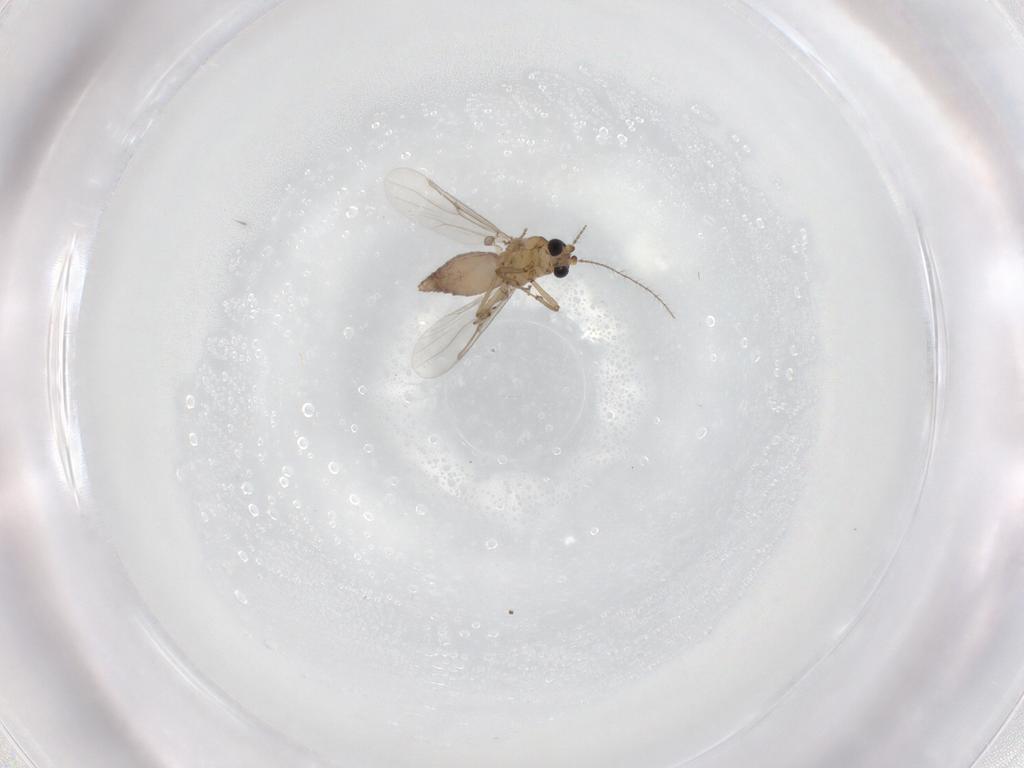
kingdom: Animalia
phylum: Arthropoda
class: Insecta
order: Diptera
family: Ceratopogonidae
